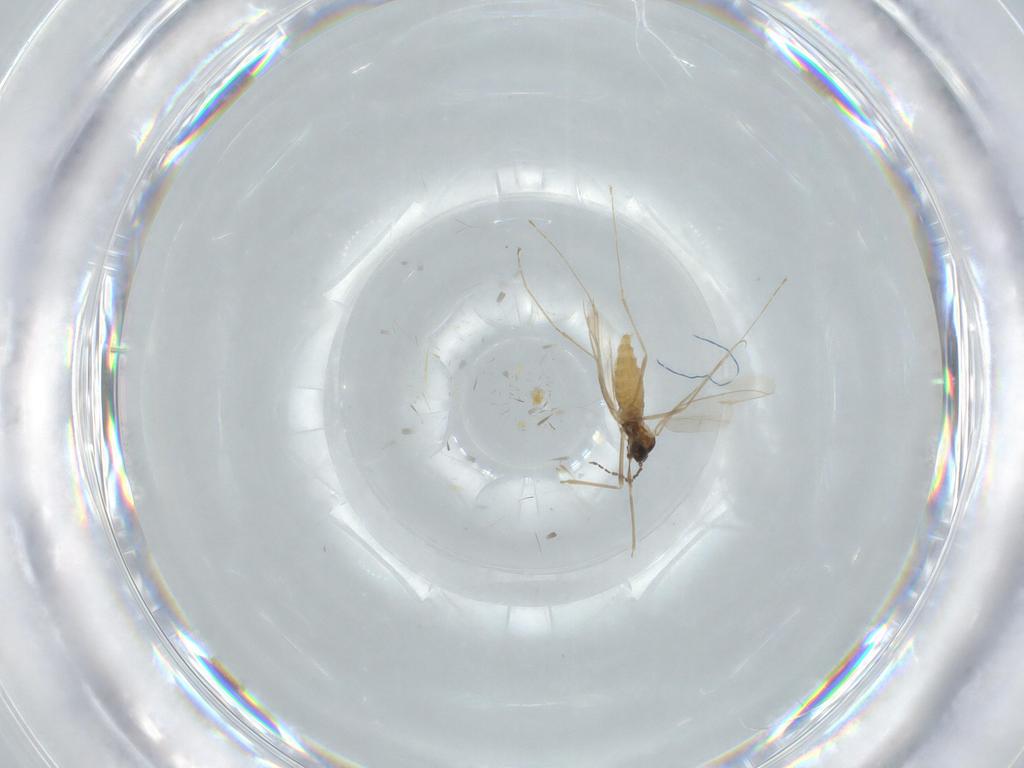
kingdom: Animalia
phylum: Arthropoda
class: Insecta
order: Diptera
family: Cecidomyiidae
